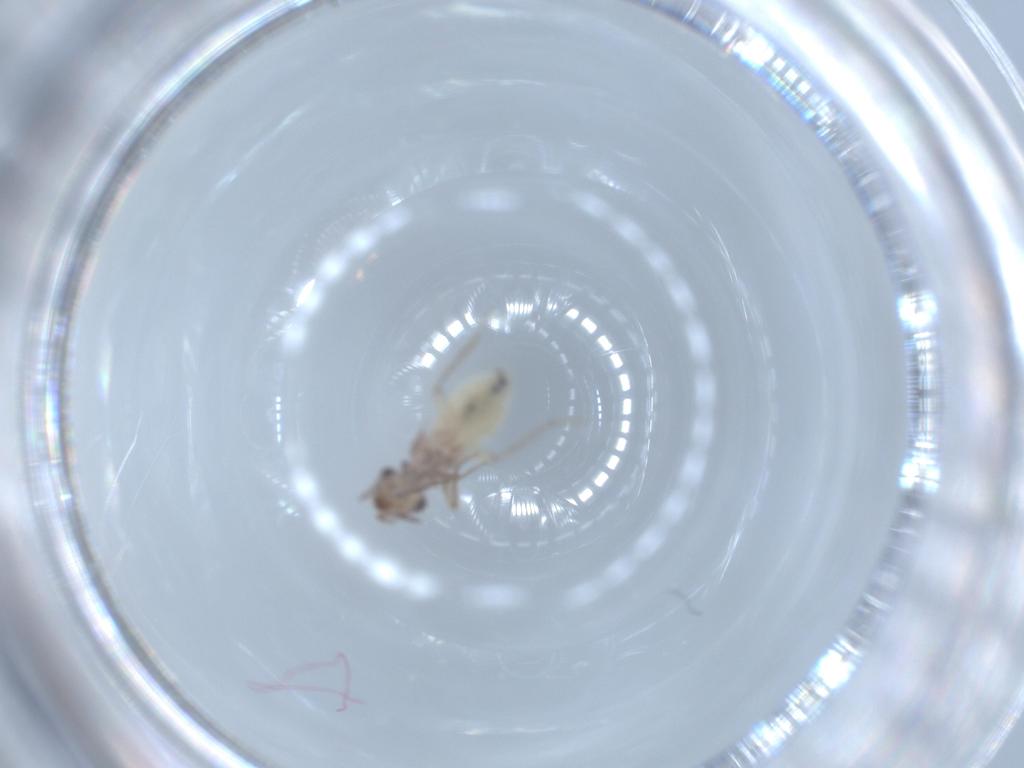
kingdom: Animalia
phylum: Arthropoda
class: Insecta
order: Psocodea
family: Lepidopsocidae
